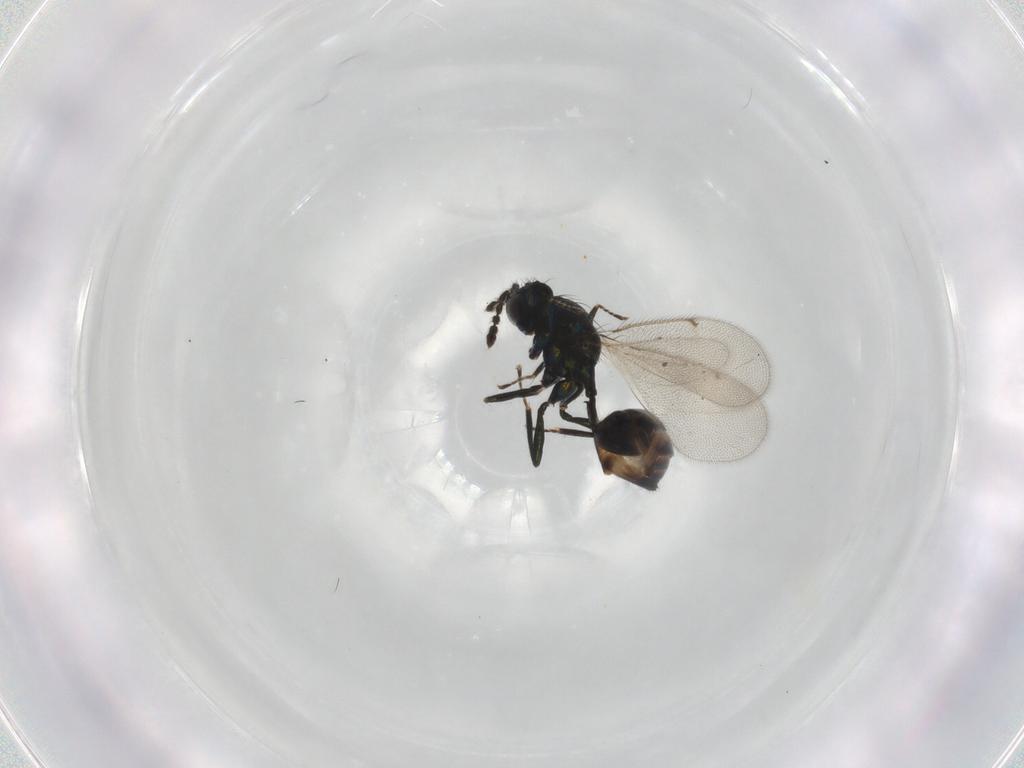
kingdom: Animalia
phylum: Arthropoda
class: Insecta
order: Hymenoptera
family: Eulophidae
